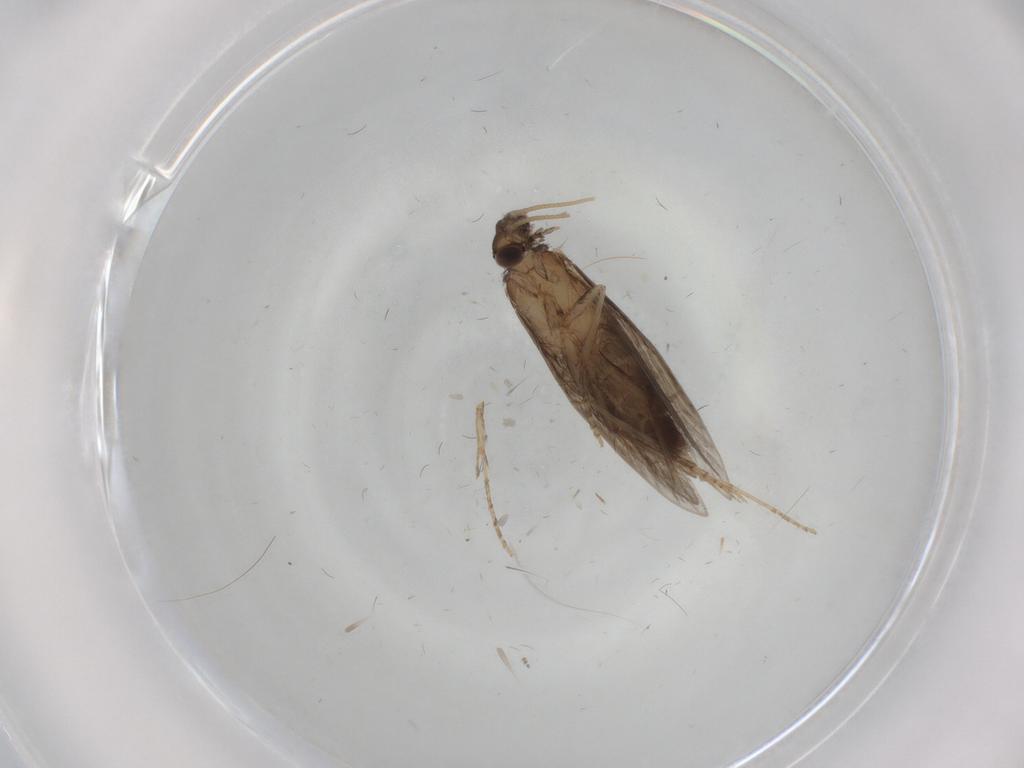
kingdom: Animalia
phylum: Arthropoda
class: Insecta
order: Trichoptera
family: Hydroptilidae
